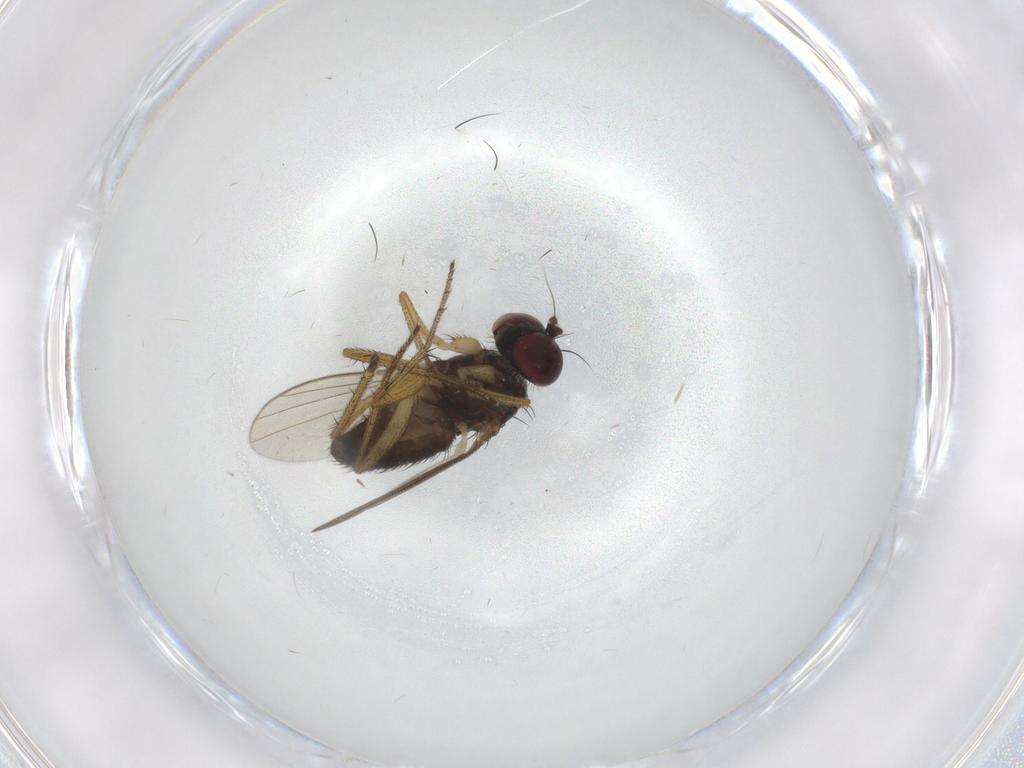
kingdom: Animalia
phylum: Arthropoda
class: Insecta
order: Diptera
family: Dolichopodidae
